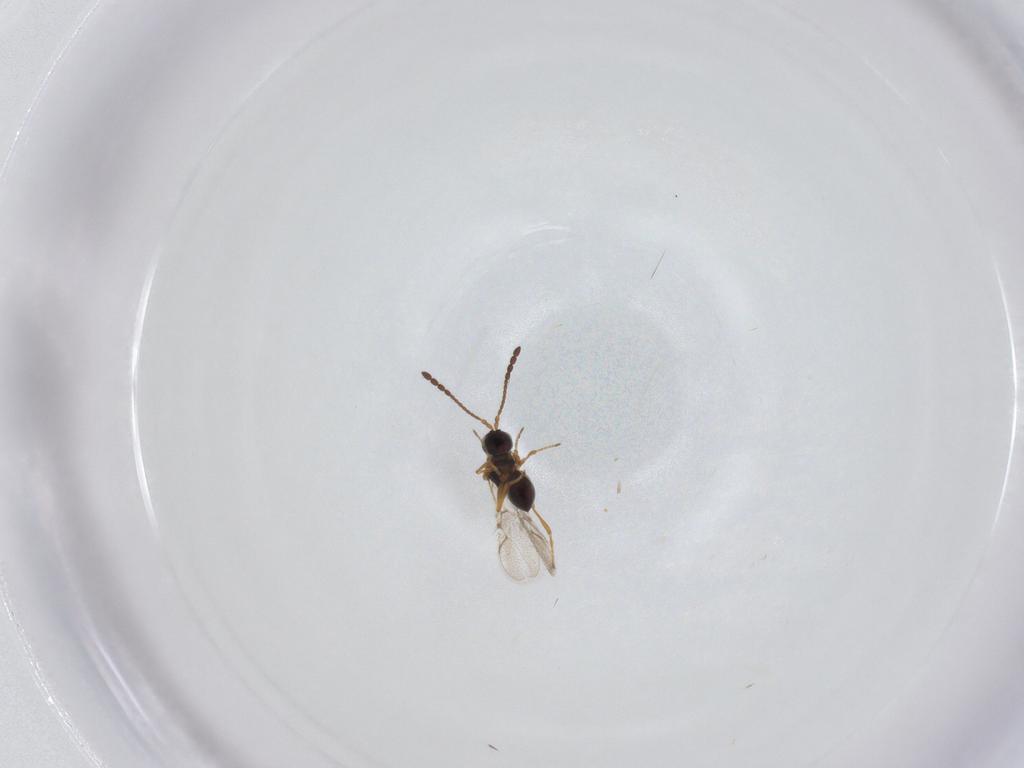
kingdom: Animalia
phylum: Arthropoda
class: Insecta
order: Hymenoptera
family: Figitidae
